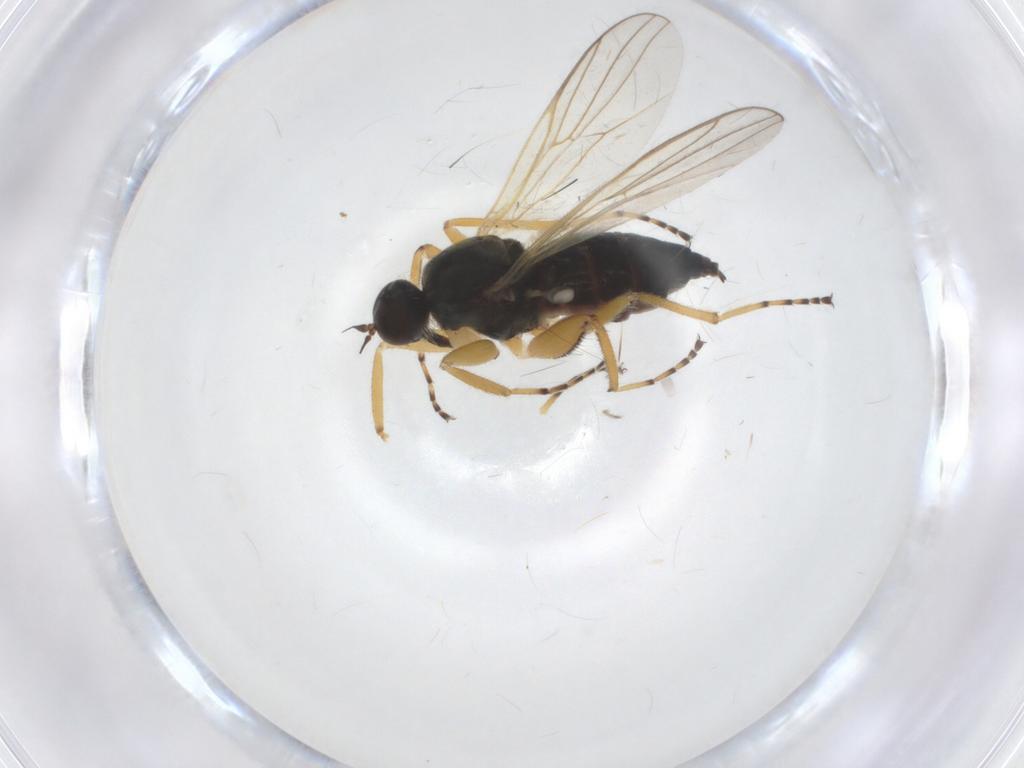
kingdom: Animalia
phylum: Arthropoda
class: Insecta
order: Diptera
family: Hybotidae
